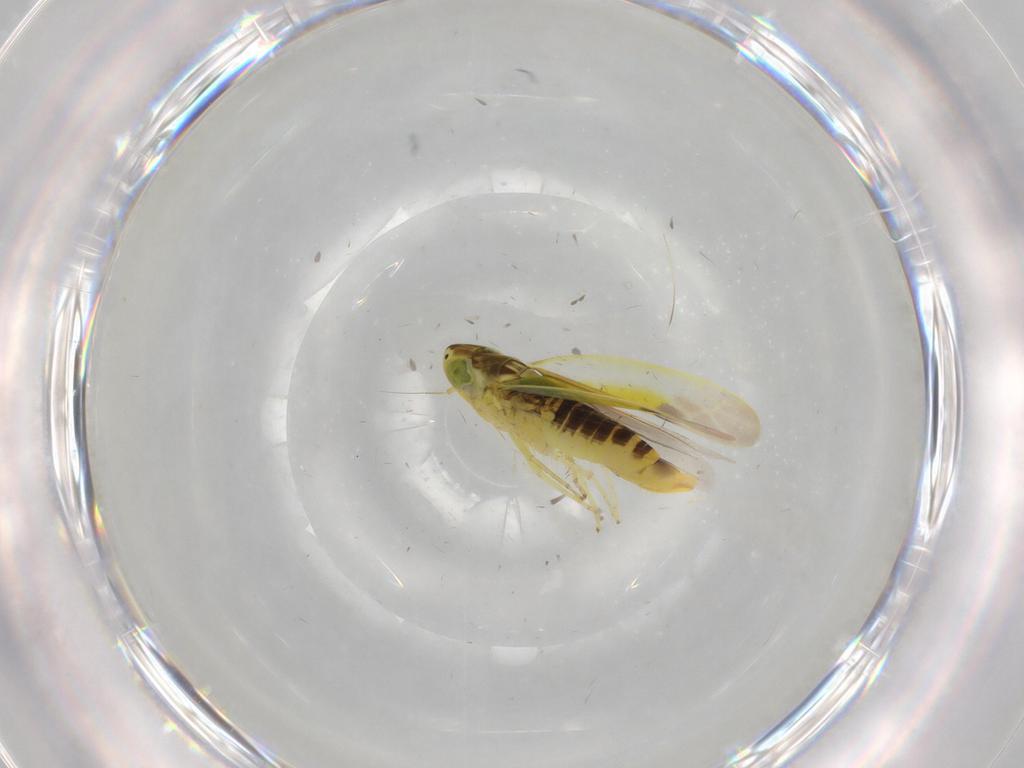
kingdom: Animalia
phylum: Arthropoda
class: Insecta
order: Hemiptera
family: Cicadellidae
